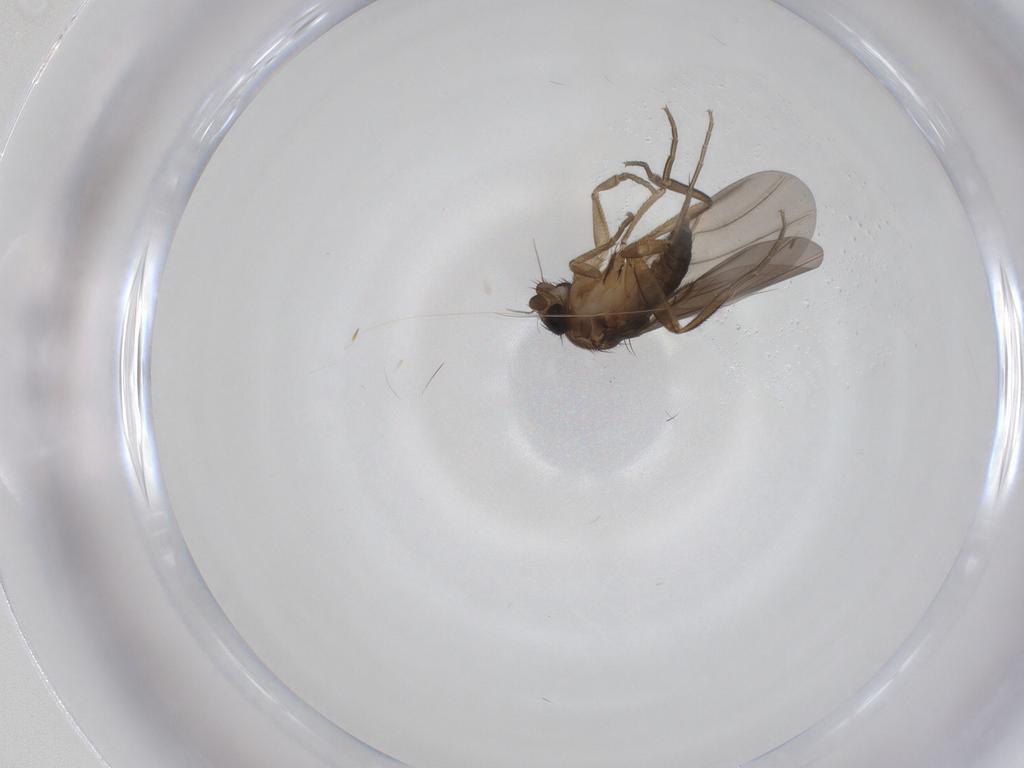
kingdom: Animalia
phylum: Arthropoda
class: Insecta
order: Diptera
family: Phoridae
